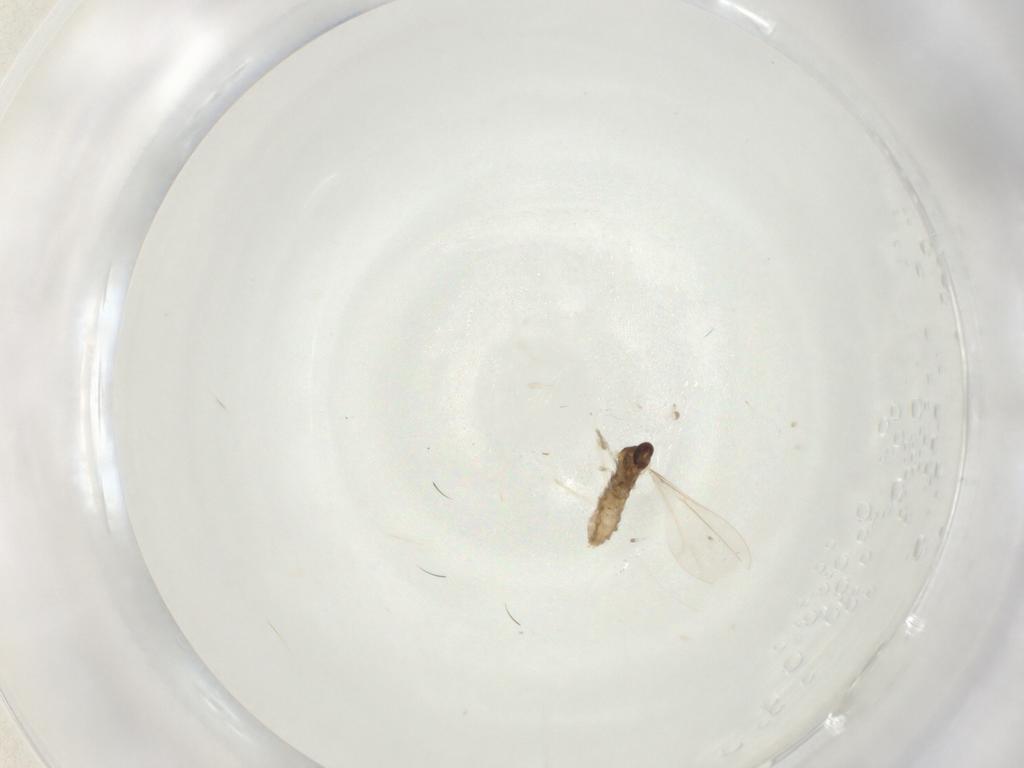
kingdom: Animalia
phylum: Arthropoda
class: Insecta
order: Diptera
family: Cecidomyiidae
